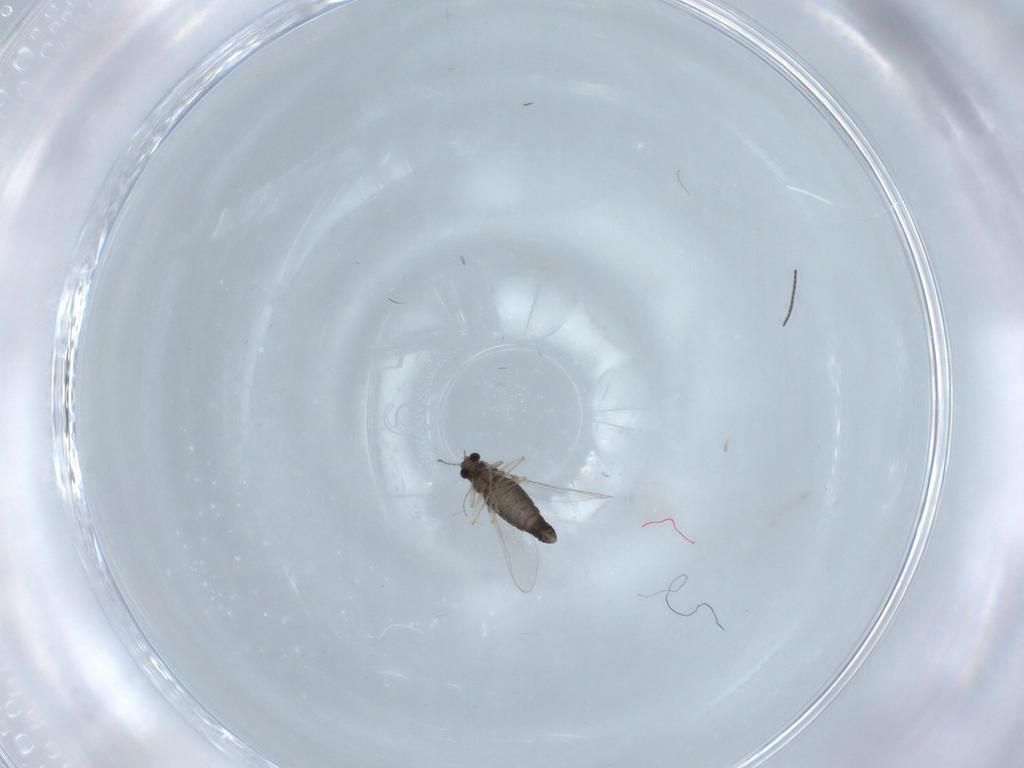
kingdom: Animalia
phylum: Arthropoda
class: Insecta
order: Diptera
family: Chironomidae
